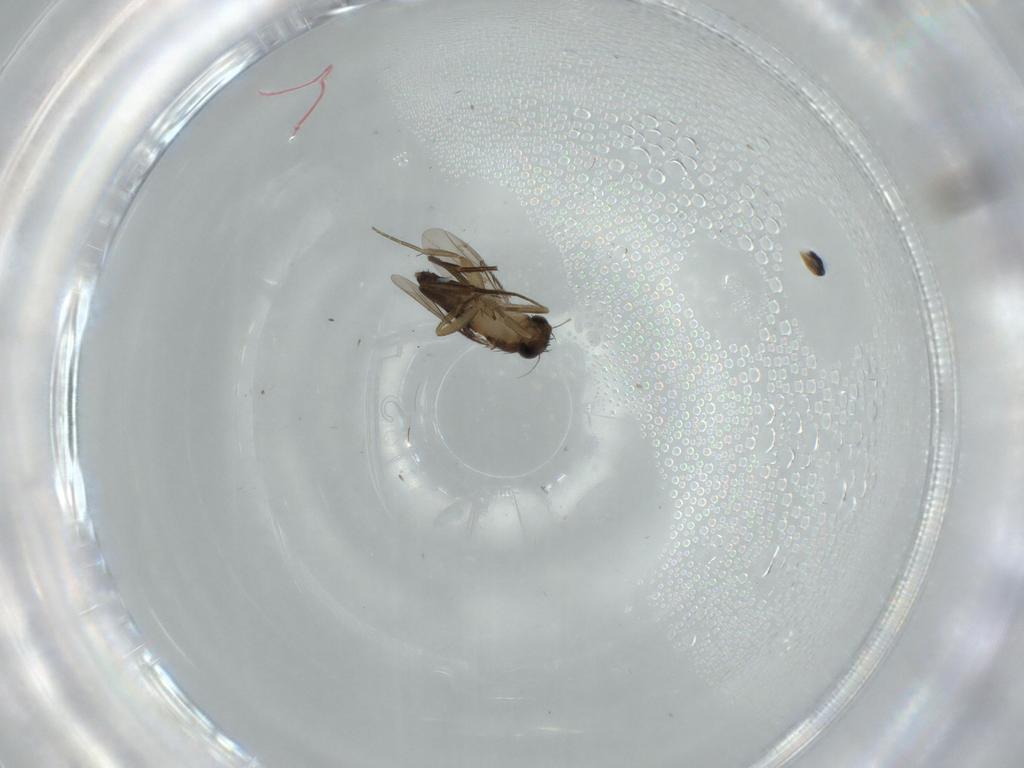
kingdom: Animalia
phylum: Arthropoda
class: Insecta
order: Diptera
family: Phoridae
